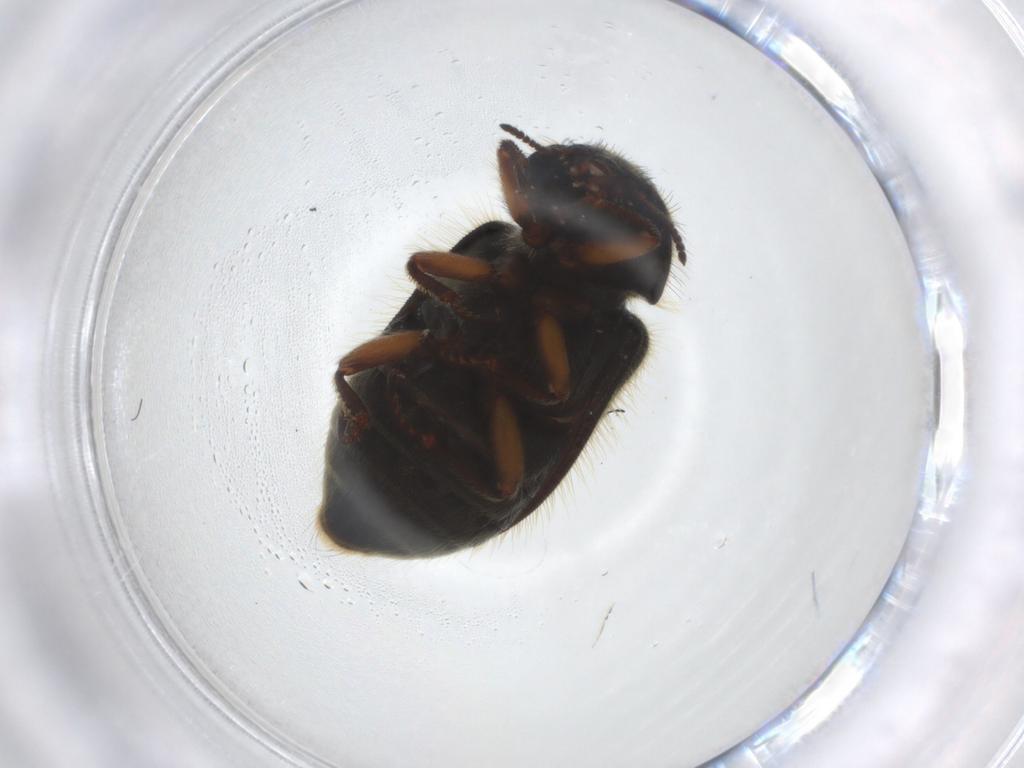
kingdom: Animalia
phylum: Arthropoda
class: Insecta
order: Coleoptera
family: Melyridae
